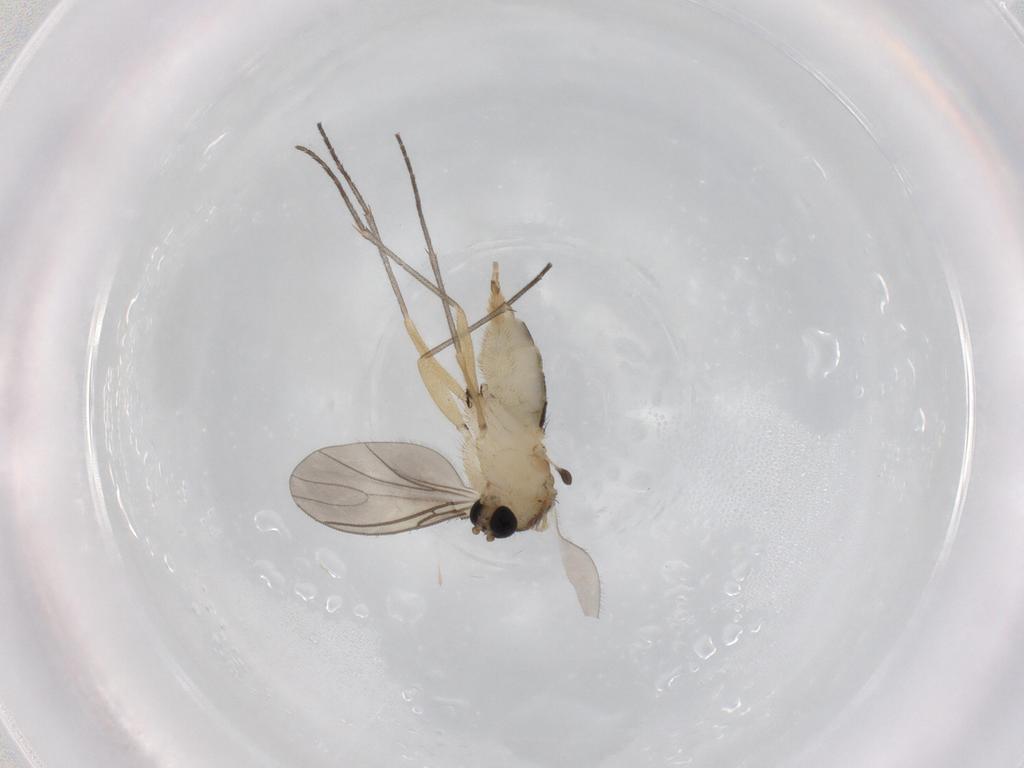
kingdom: Animalia
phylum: Arthropoda
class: Insecta
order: Diptera
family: Sciaridae
